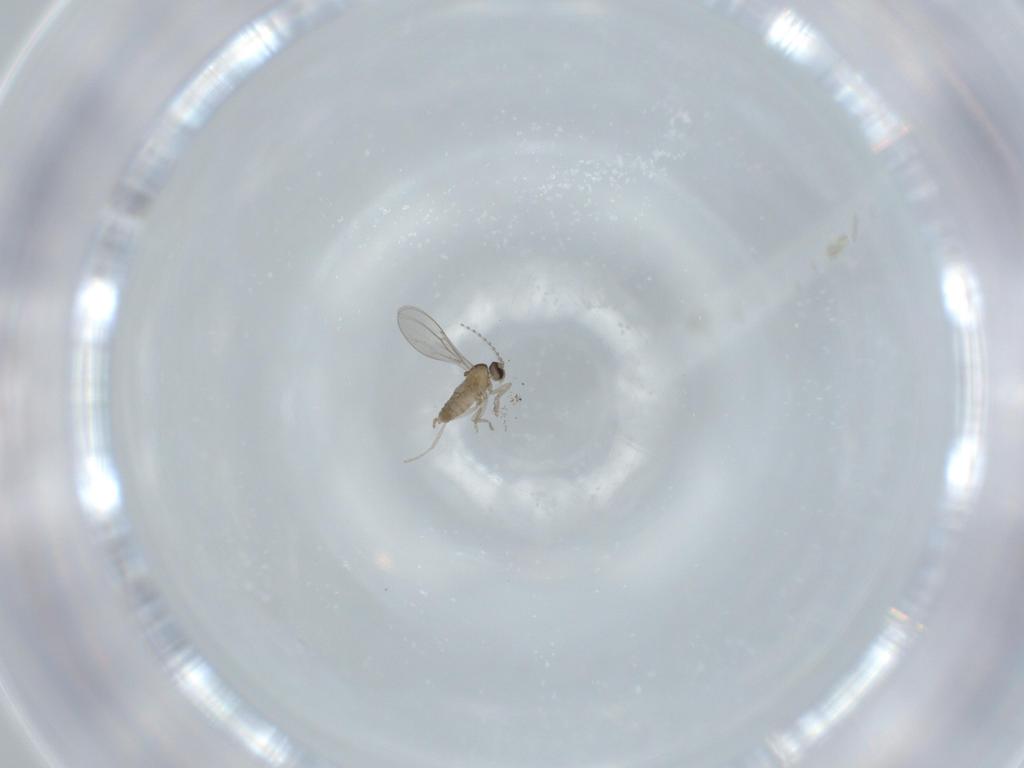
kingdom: Animalia
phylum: Arthropoda
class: Insecta
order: Diptera
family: Cecidomyiidae
